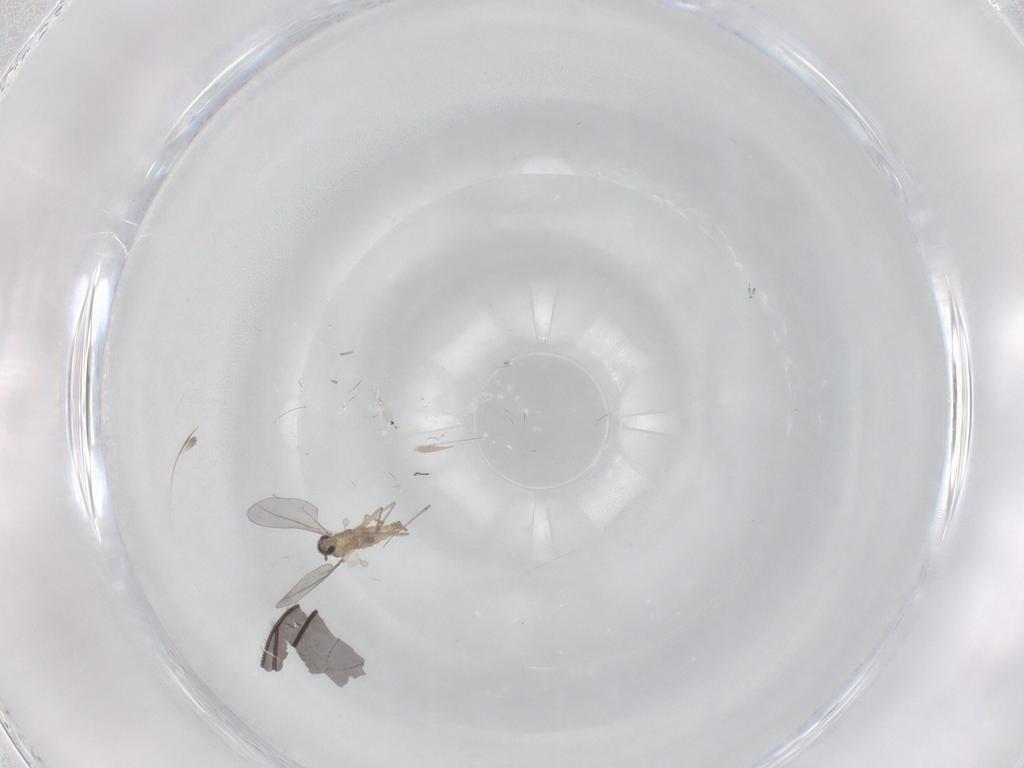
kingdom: Animalia
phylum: Arthropoda
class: Insecta
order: Diptera
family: Sciaridae
